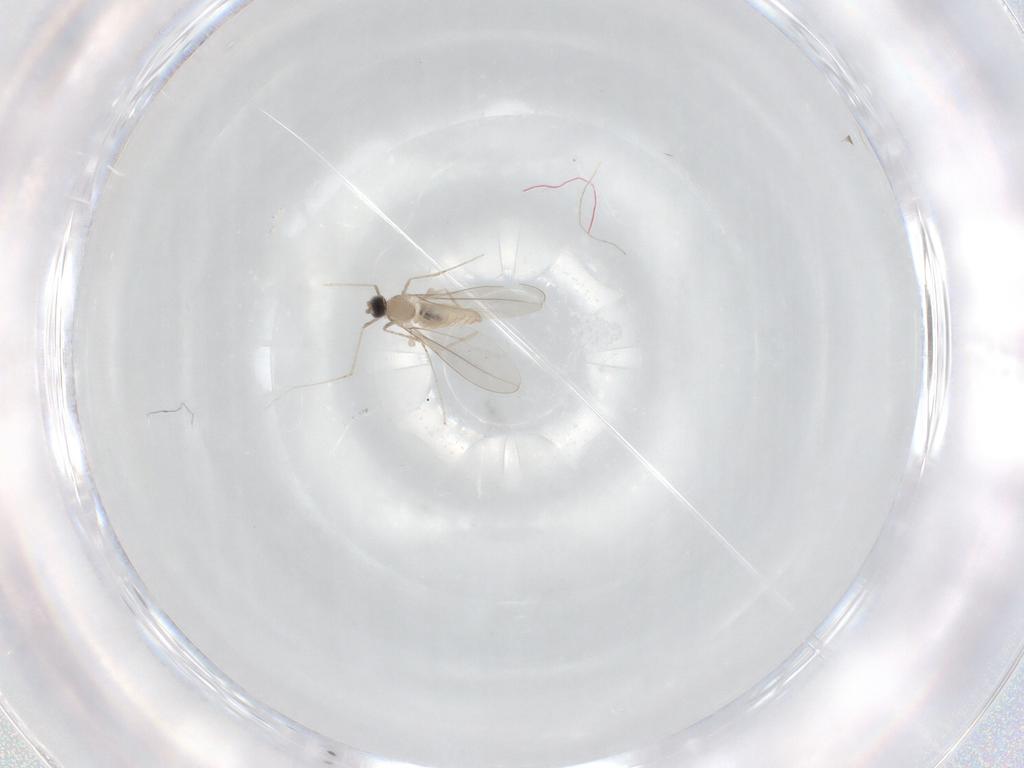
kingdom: Animalia
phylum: Arthropoda
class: Insecta
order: Diptera
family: Cecidomyiidae
